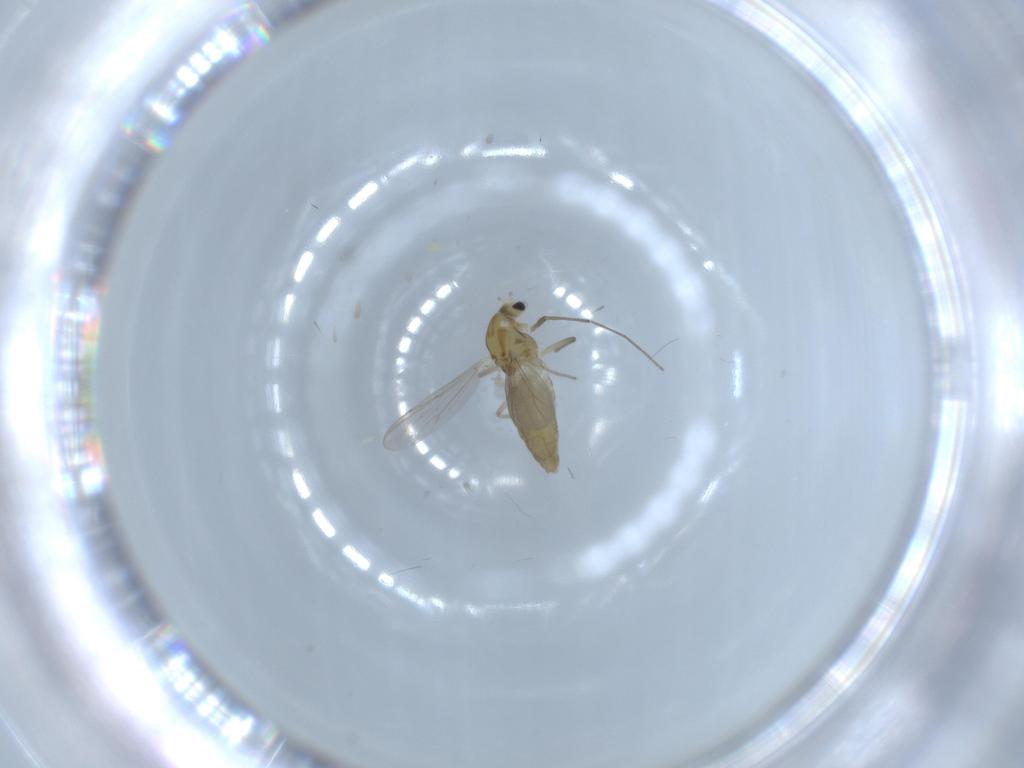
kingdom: Animalia
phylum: Arthropoda
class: Insecta
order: Diptera
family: Chironomidae
